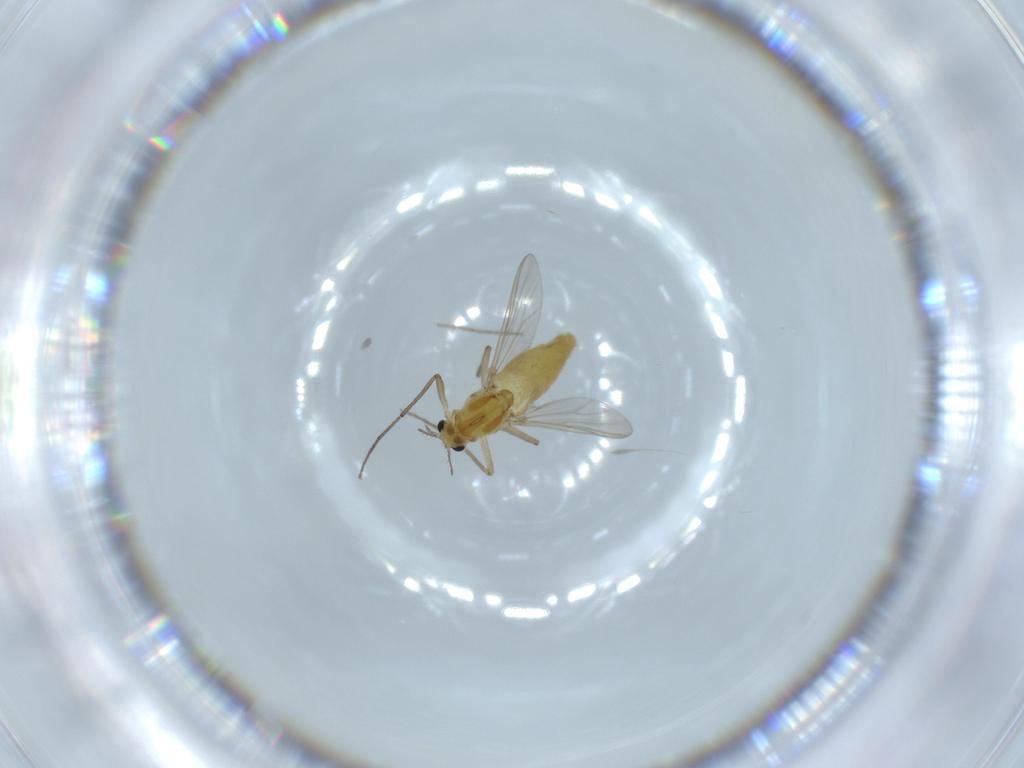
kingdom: Animalia
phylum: Arthropoda
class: Insecta
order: Diptera
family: Chironomidae
